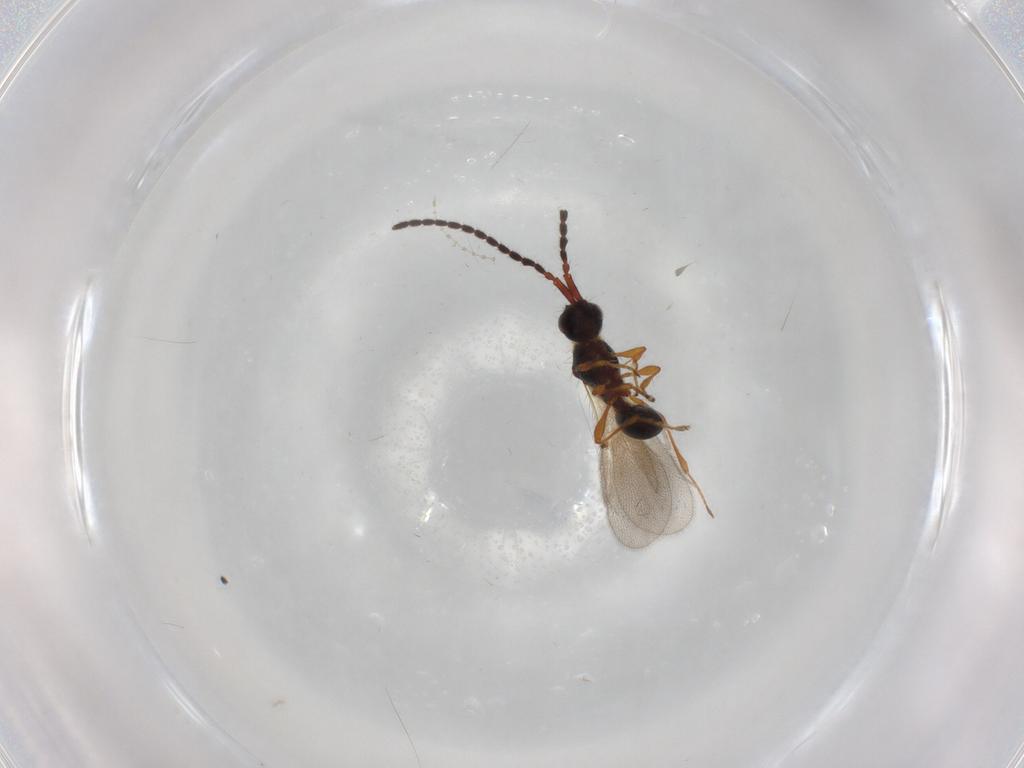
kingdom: Animalia
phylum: Arthropoda
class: Insecta
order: Hymenoptera
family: Diapriidae
